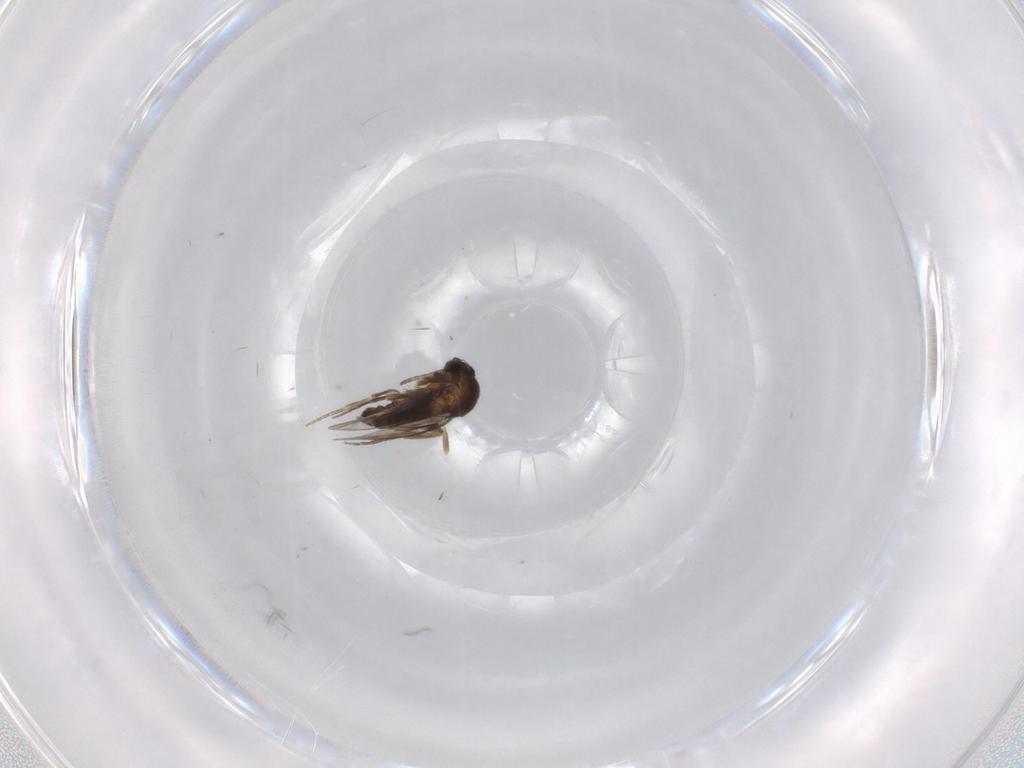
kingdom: Animalia
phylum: Arthropoda
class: Insecta
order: Diptera
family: Phoridae
